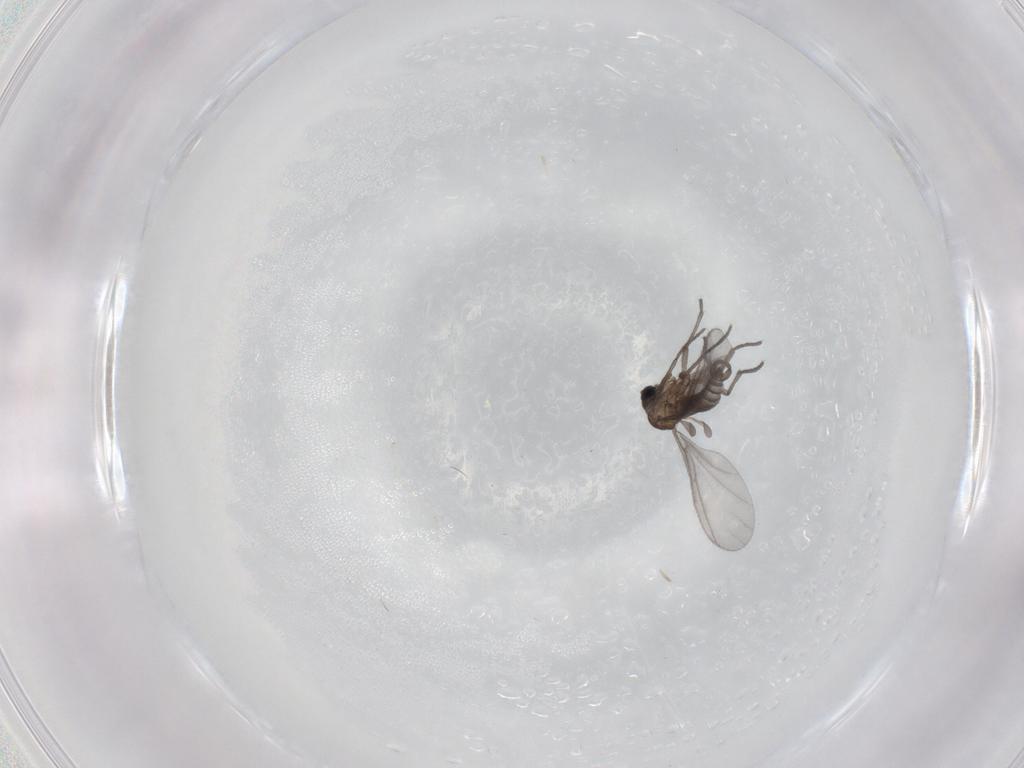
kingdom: Animalia
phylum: Arthropoda
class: Insecta
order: Diptera
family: Sciaridae
